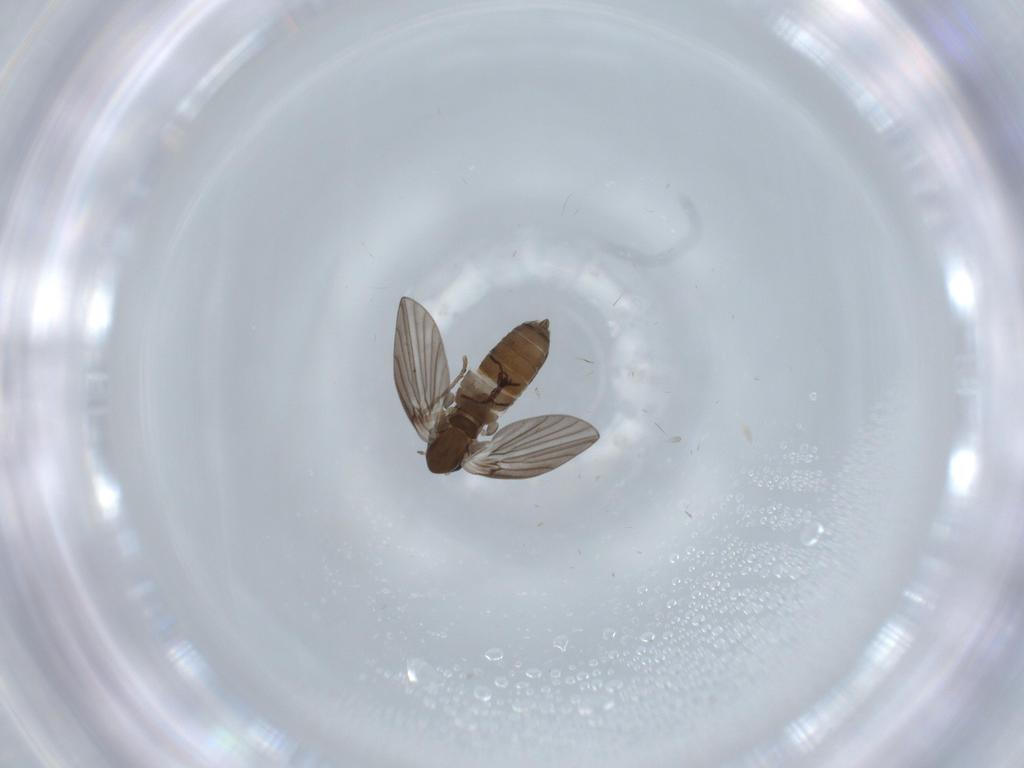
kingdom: Animalia
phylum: Arthropoda
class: Insecta
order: Diptera
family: Psychodidae
